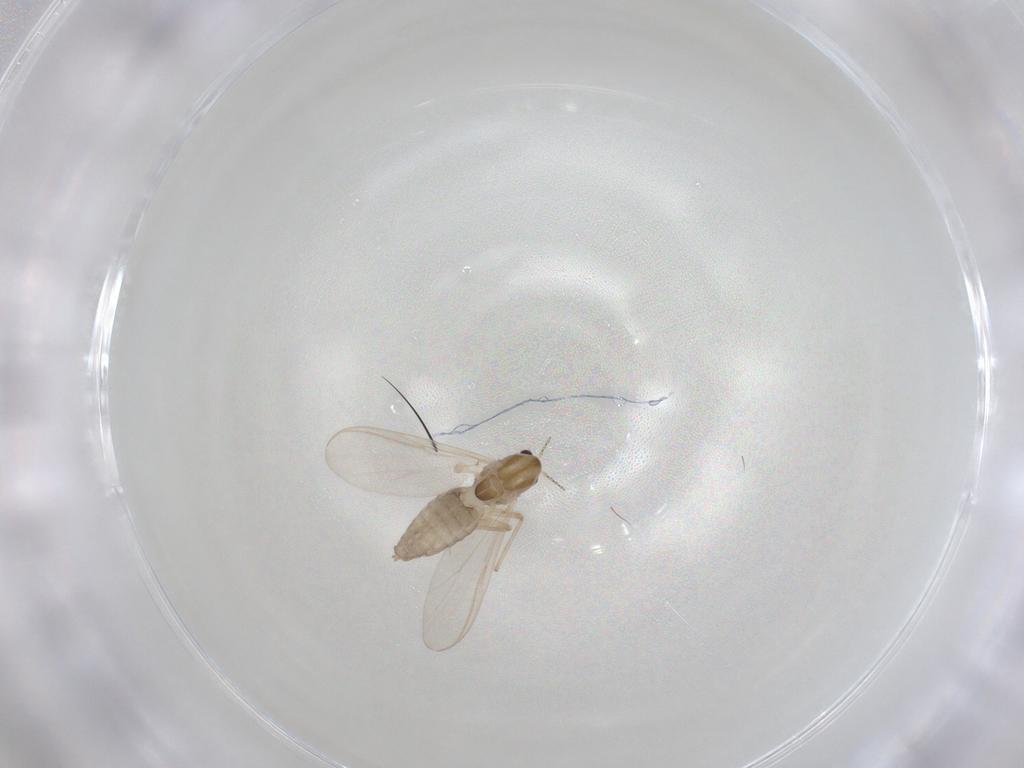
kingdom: Animalia
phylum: Arthropoda
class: Insecta
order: Diptera
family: Chironomidae
